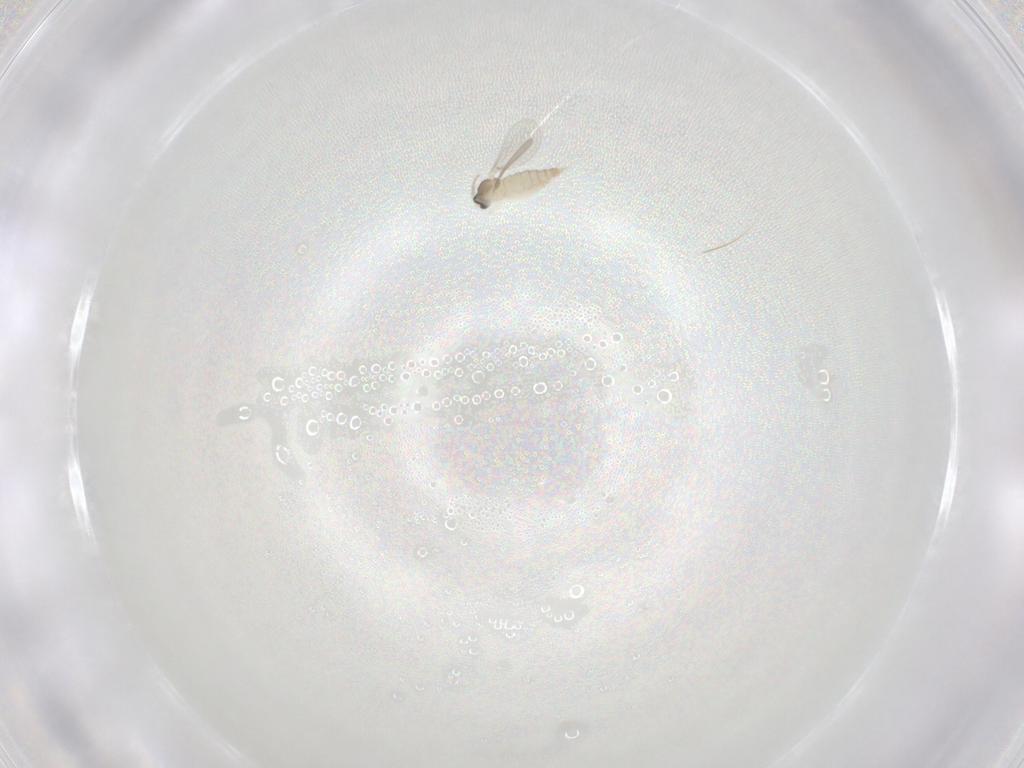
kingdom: Animalia
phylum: Arthropoda
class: Insecta
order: Diptera
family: Cecidomyiidae
